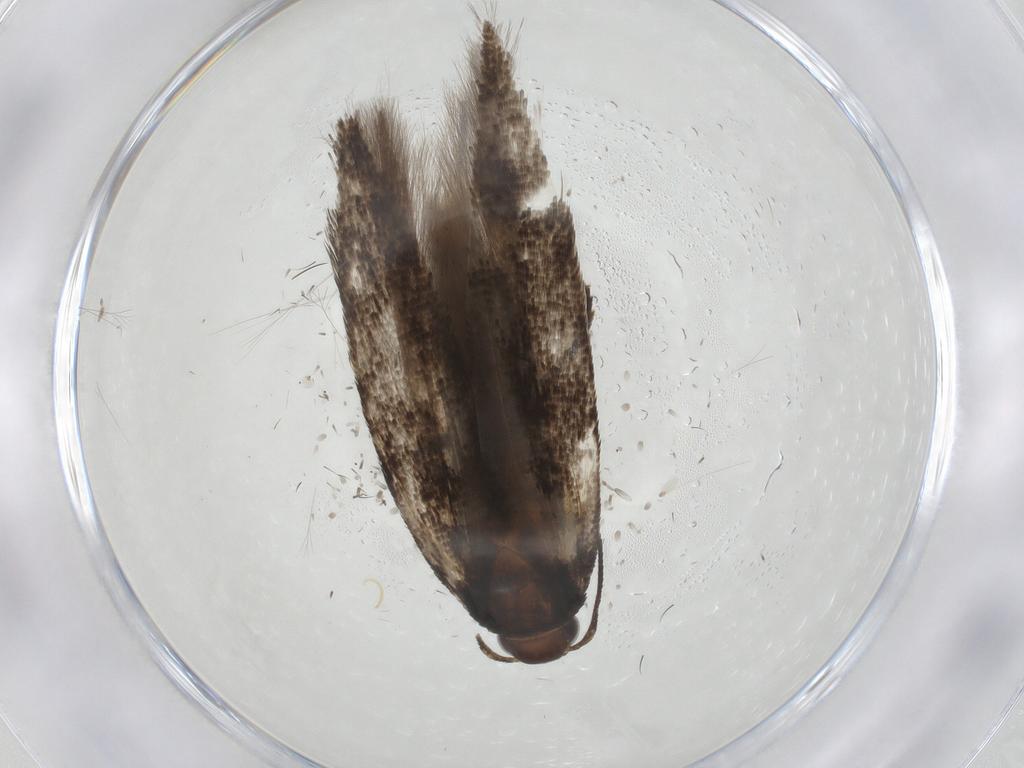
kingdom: Animalia
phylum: Arthropoda
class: Insecta
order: Lepidoptera
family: Gelechiidae
